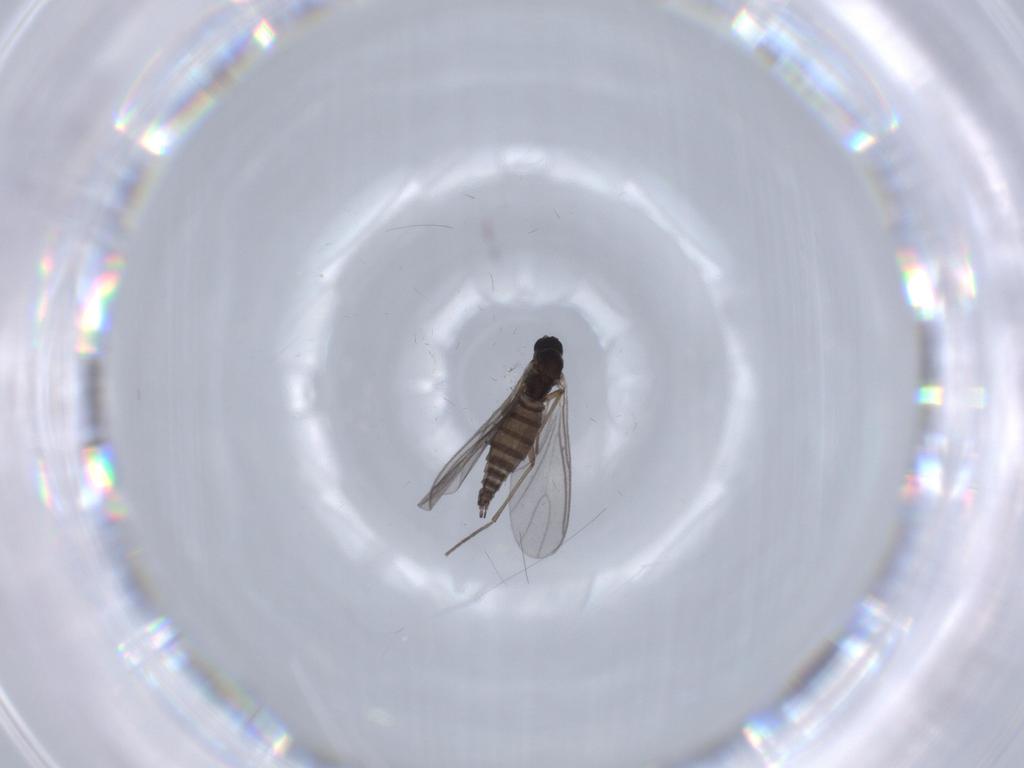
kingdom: Animalia
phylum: Arthropoda
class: Insecta
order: Diptera
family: Sciaridae
